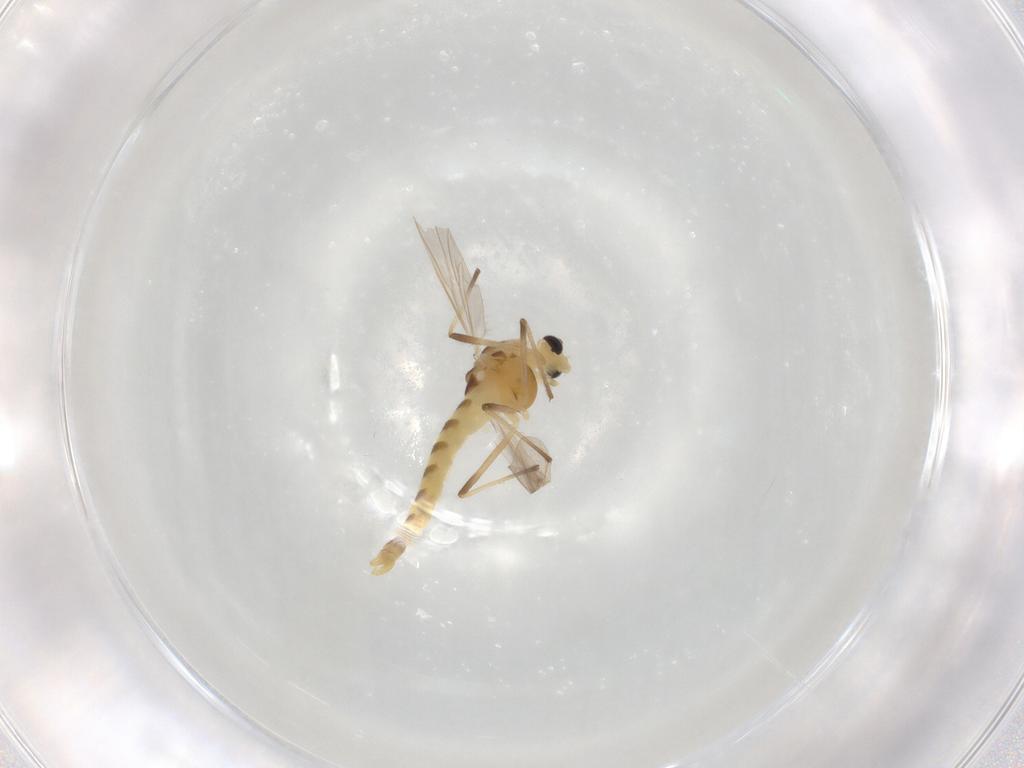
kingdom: Animalia
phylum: Arthropoda
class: Insecta
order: Diptera
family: Chironomidae
